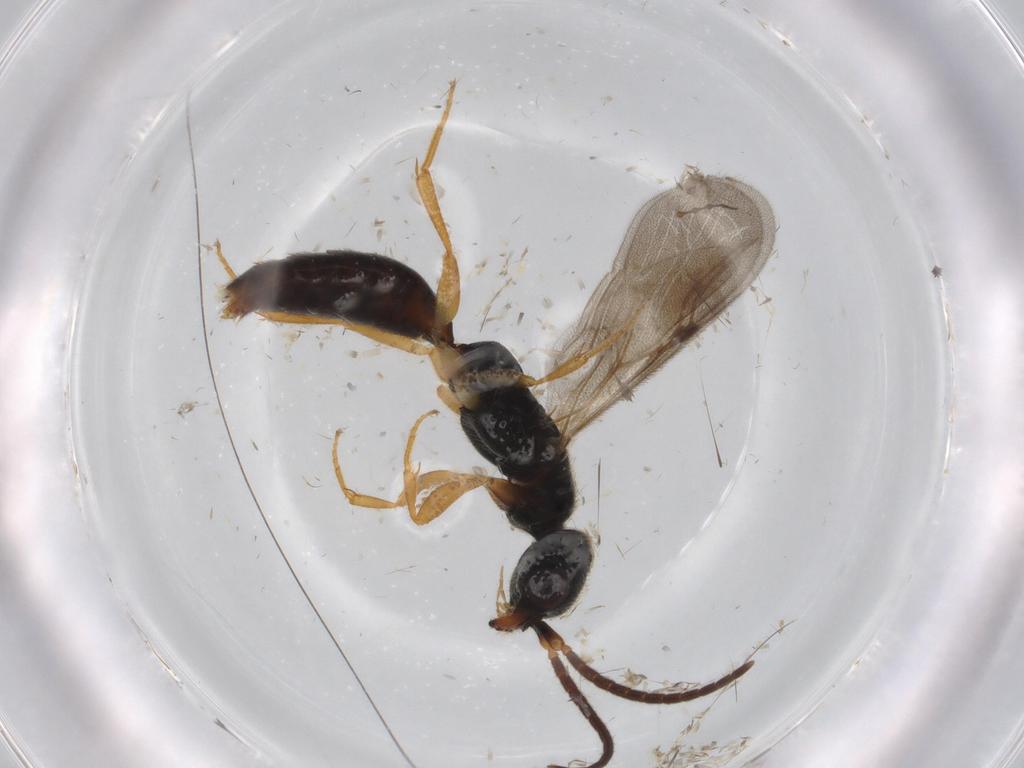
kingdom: Animalia
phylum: Arthropoda
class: Insecta
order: Hymenoptera
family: Bethylidae
